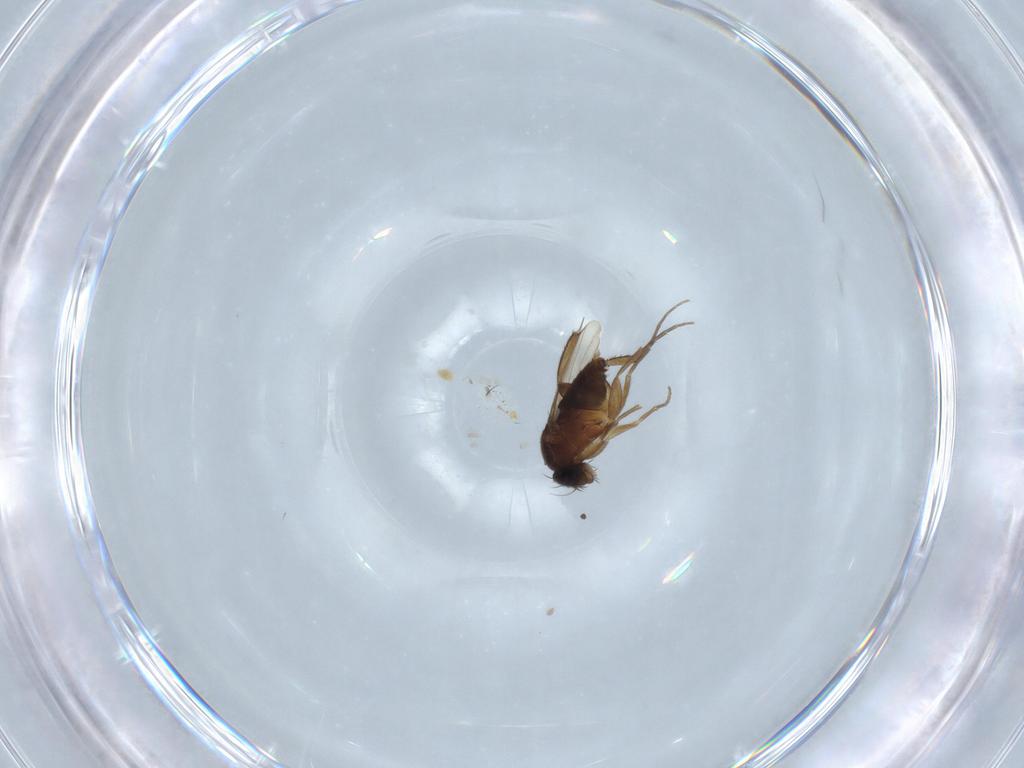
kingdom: Animalia
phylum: Arthropoda
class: Insecta
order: Diptera
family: Phoridae
